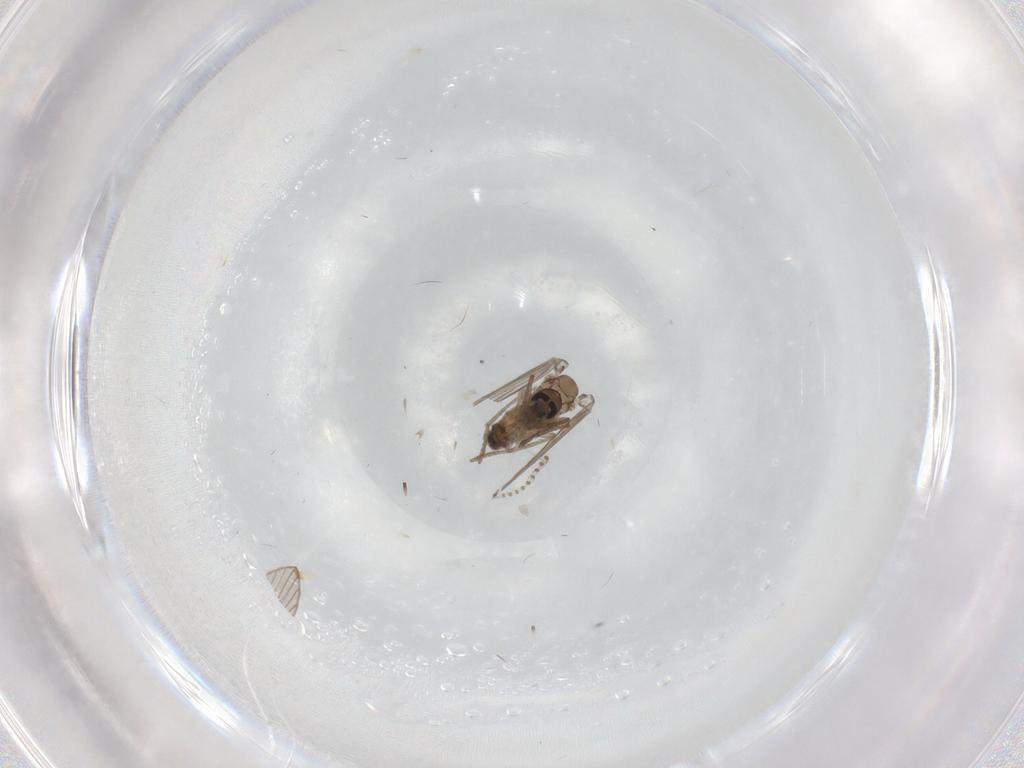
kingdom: Animalia
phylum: Arthropoda
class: Insecta
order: Diptera
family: Psychodidae
